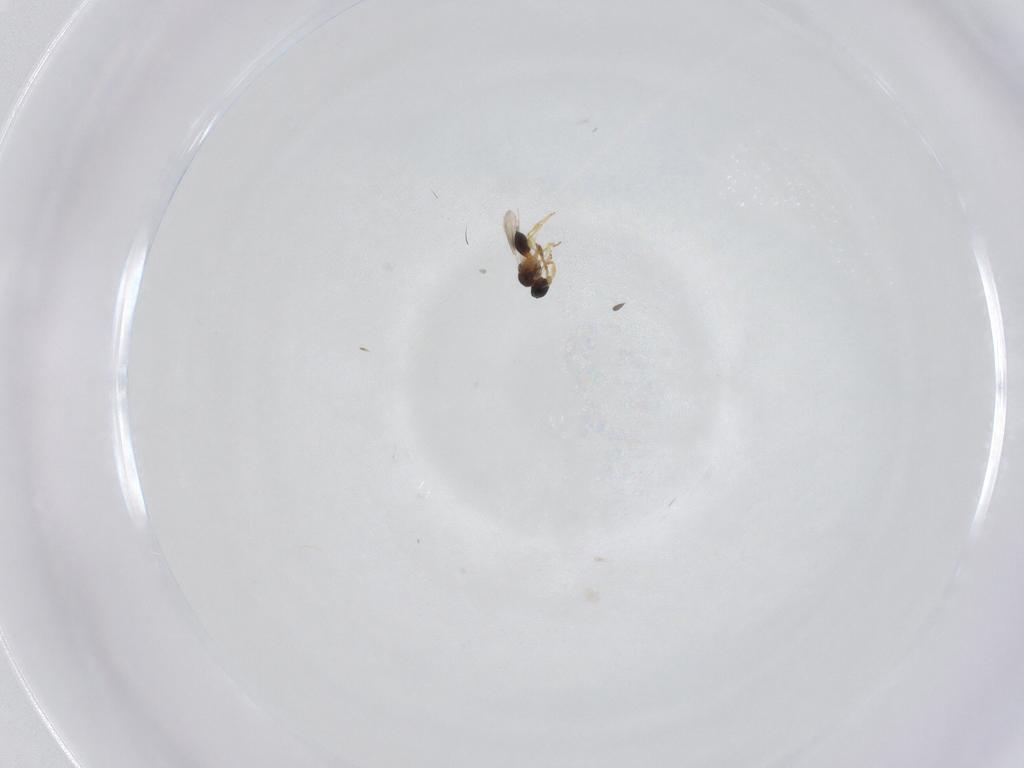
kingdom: Animalia
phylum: Arthropoda
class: Insecta
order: Hymenoptera
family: Platygastridae
